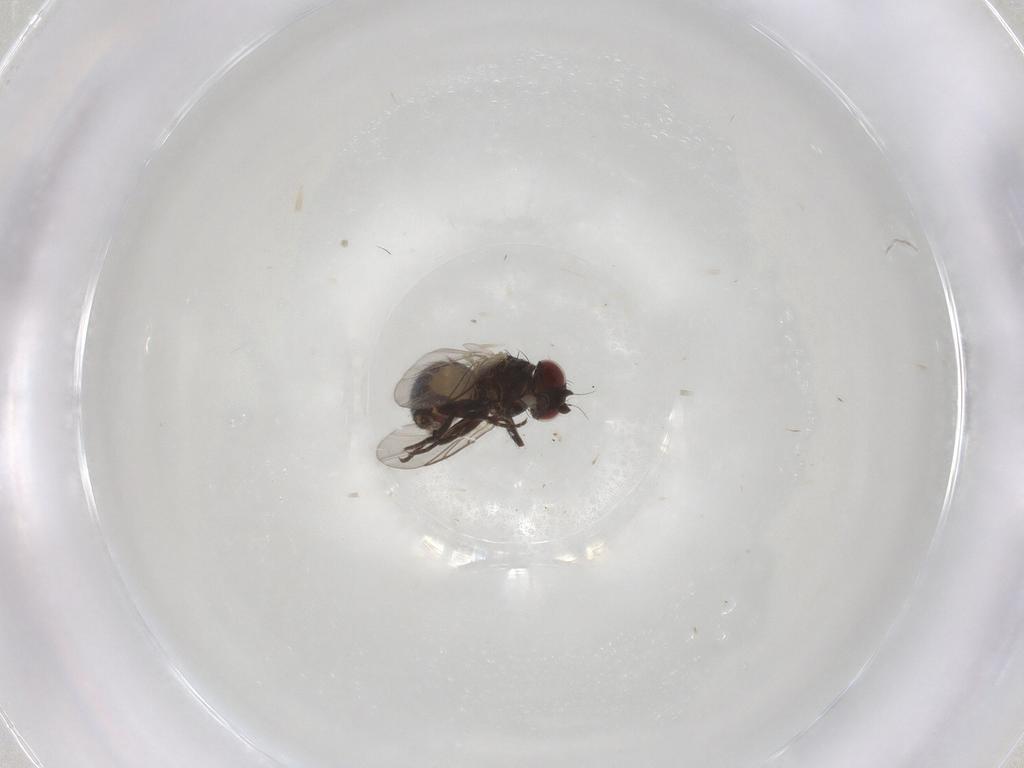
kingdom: Animalia
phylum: Arthropoda
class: Insecta
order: Diptera
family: Ceratopogonidae
